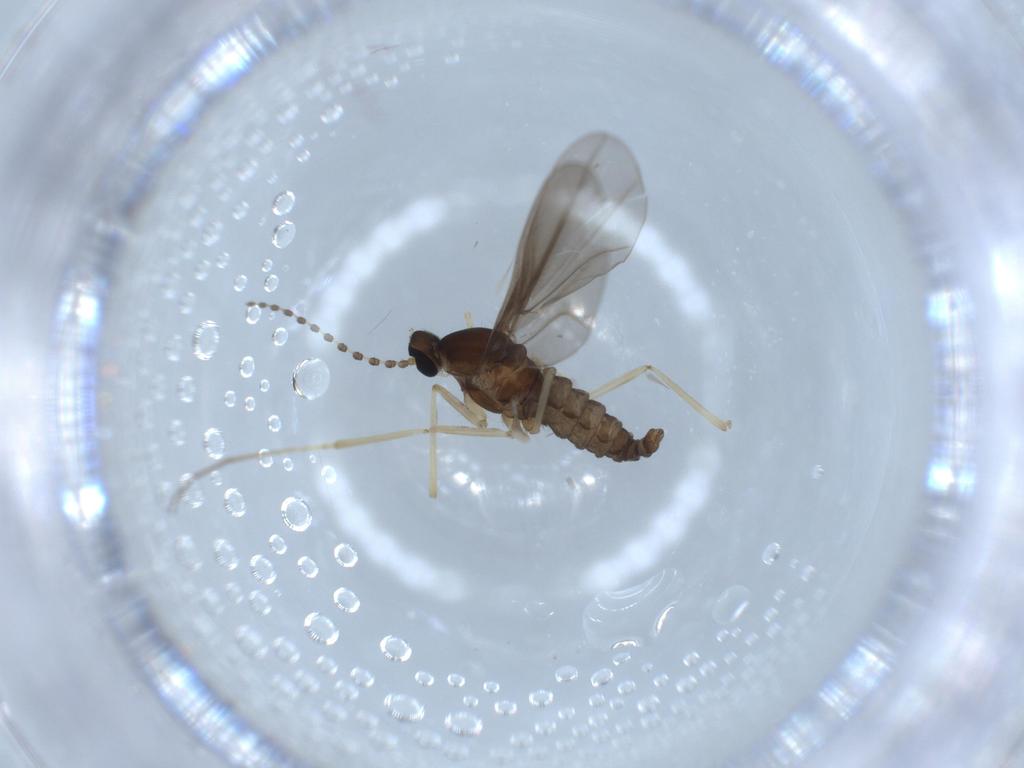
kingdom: Animalia
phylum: Arthropoda
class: Insecta
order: Diptera
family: Cecidomyiidae
